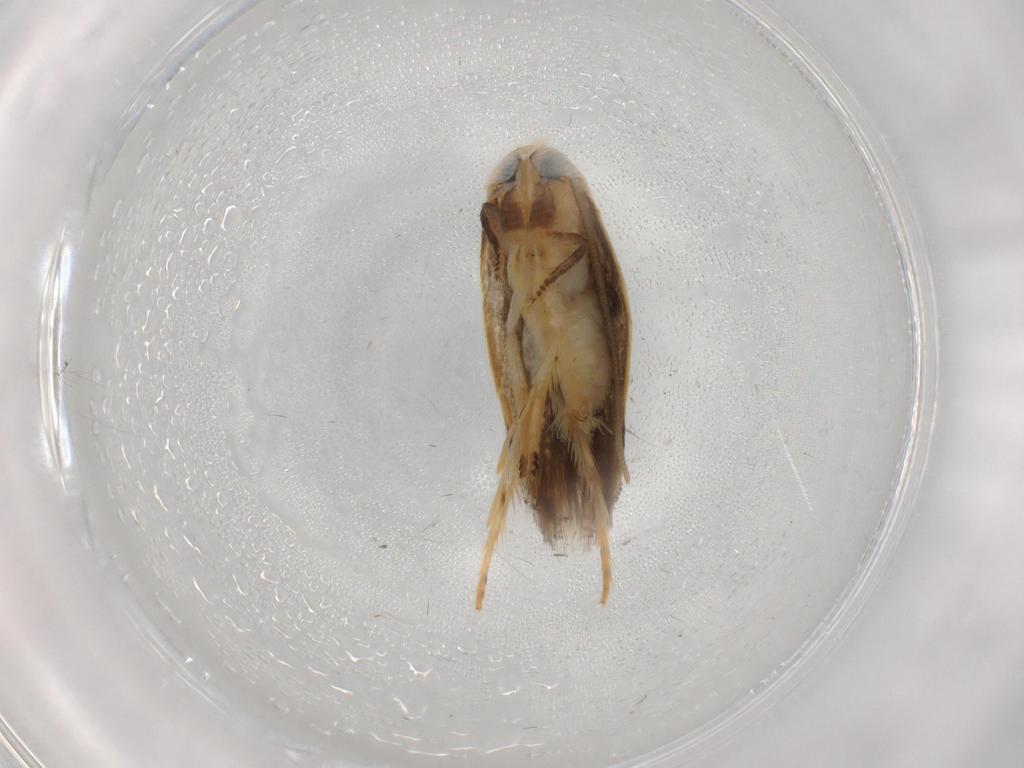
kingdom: Animalia
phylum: Arthropoda
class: Insecta
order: Lepidoptera
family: Opostegidae
